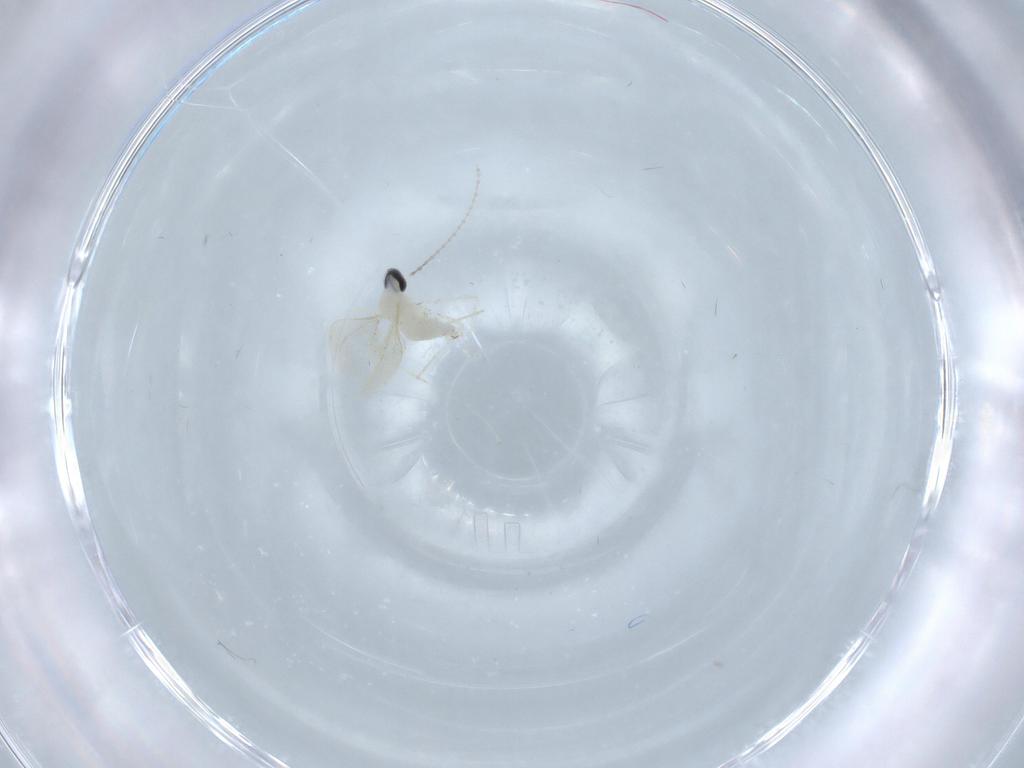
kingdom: Animalia
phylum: Arthropoda
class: Insecta
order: Diptera
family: Cecidomyiidae
